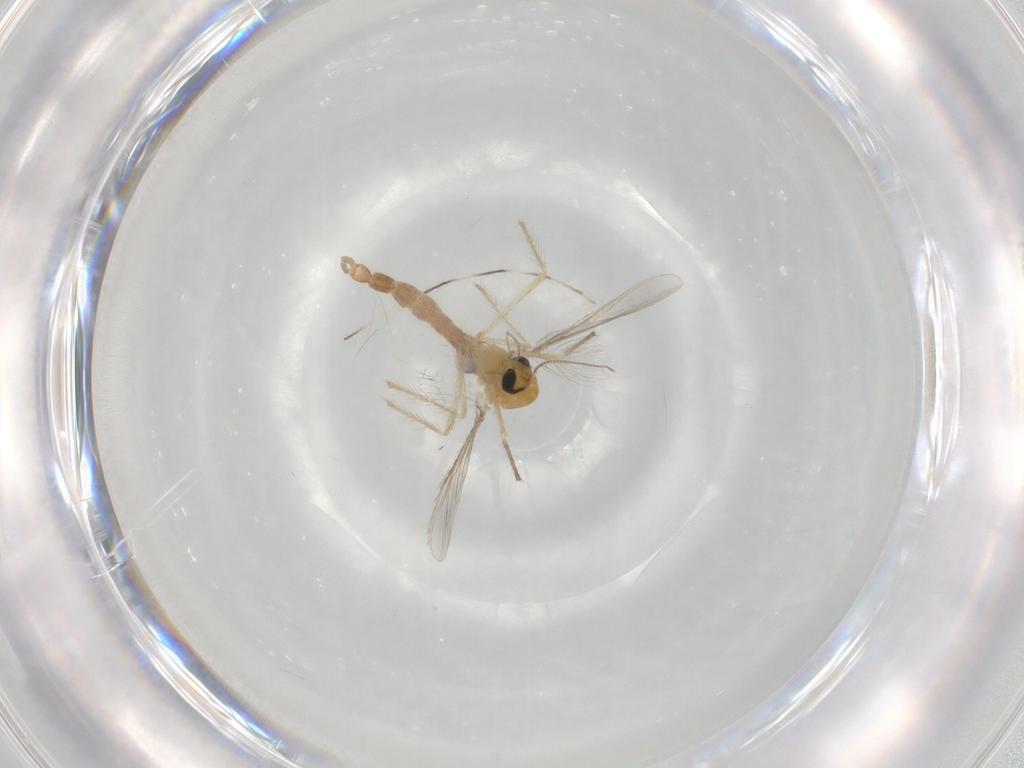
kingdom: Animalia
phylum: Arthropoda
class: Insecta
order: Diptera
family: Chironomidae
